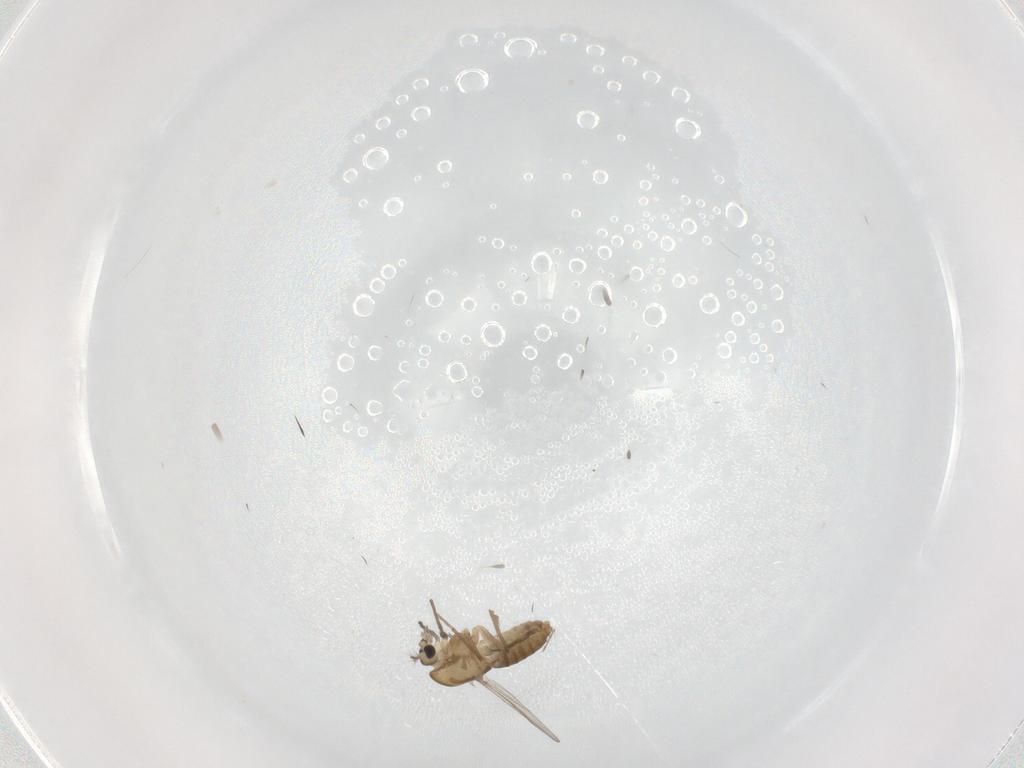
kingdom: Animalia
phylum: Arthropoda
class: Insecta
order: Diptera
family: Chironomidae
